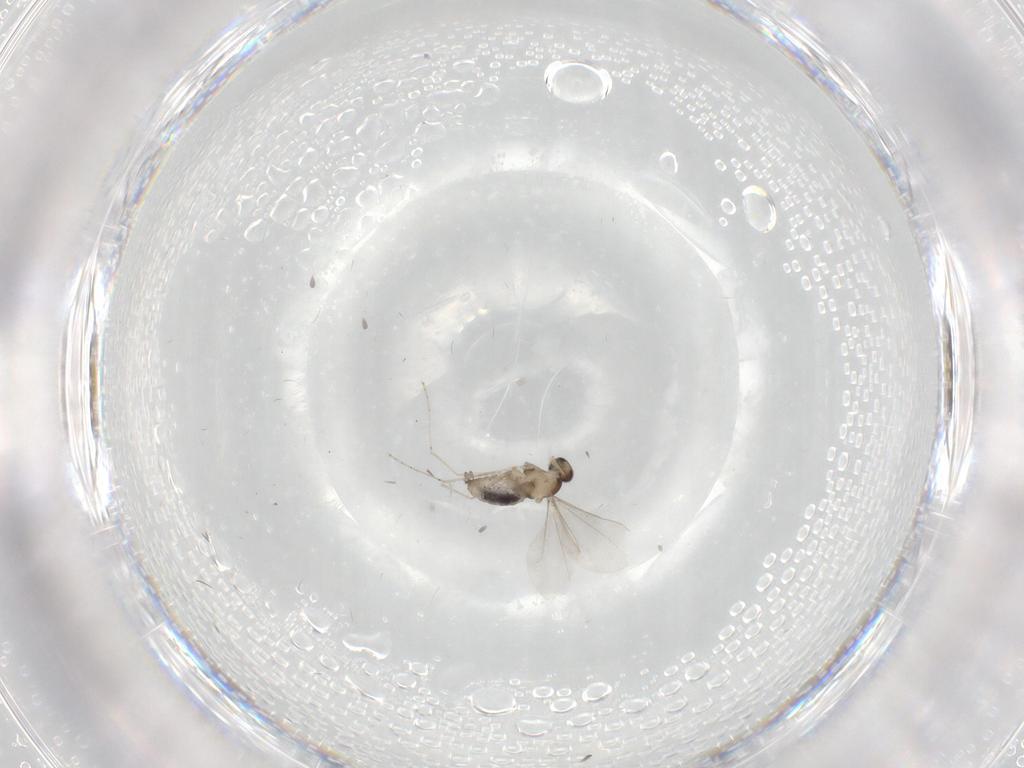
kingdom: Animalia
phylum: Arthropoda
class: Insecta
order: Diptera
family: Cecidomyiidae
